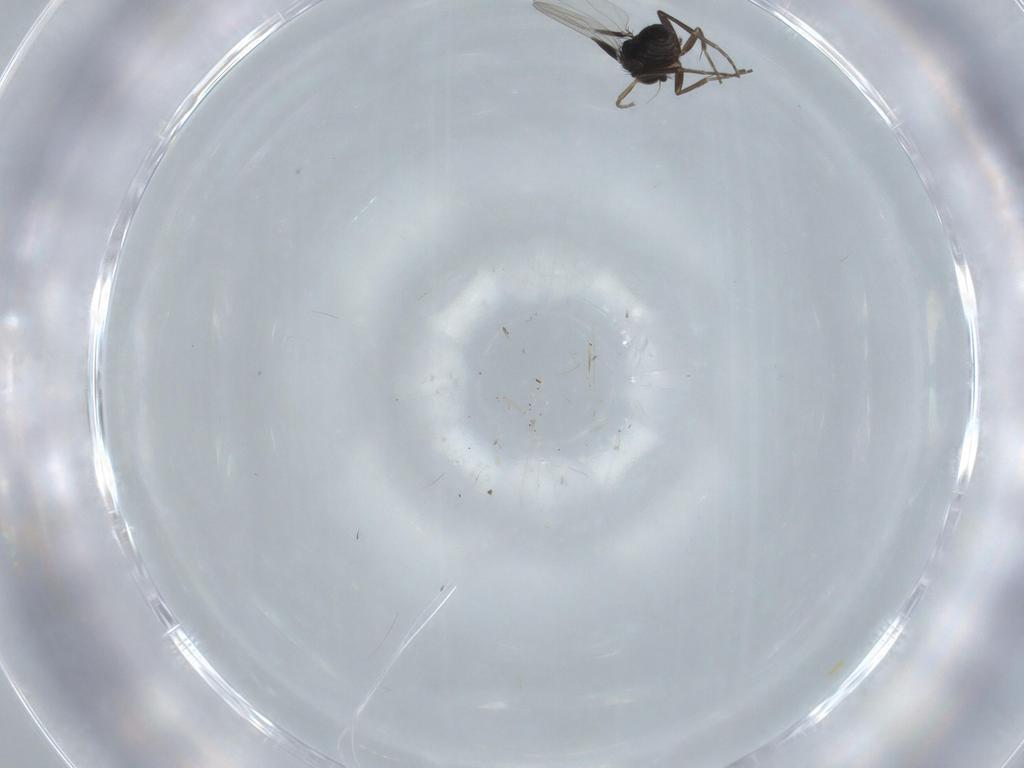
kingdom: Animalia
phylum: Arthropoda
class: Insecta
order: Diptera
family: Phoridae
